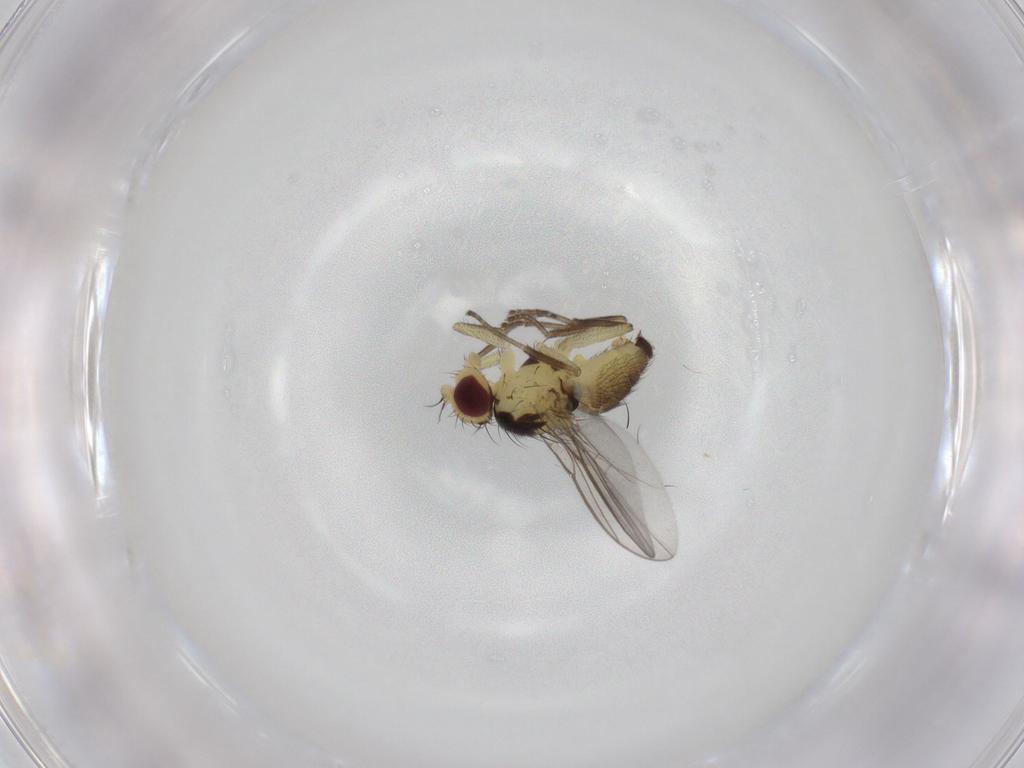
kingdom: Animalia
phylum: Arthropoda
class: Insecta
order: Diptera
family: Agromyzidae
